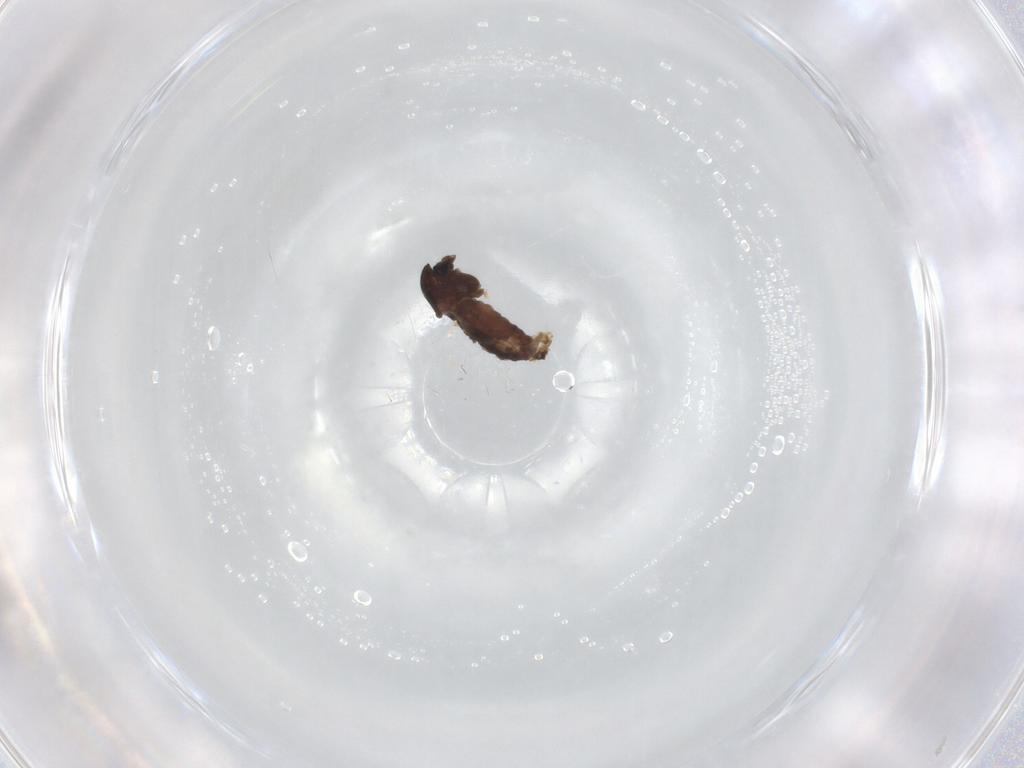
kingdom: Animalia
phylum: Arthropoda
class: Insecta
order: Diptera
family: Chironomidae
